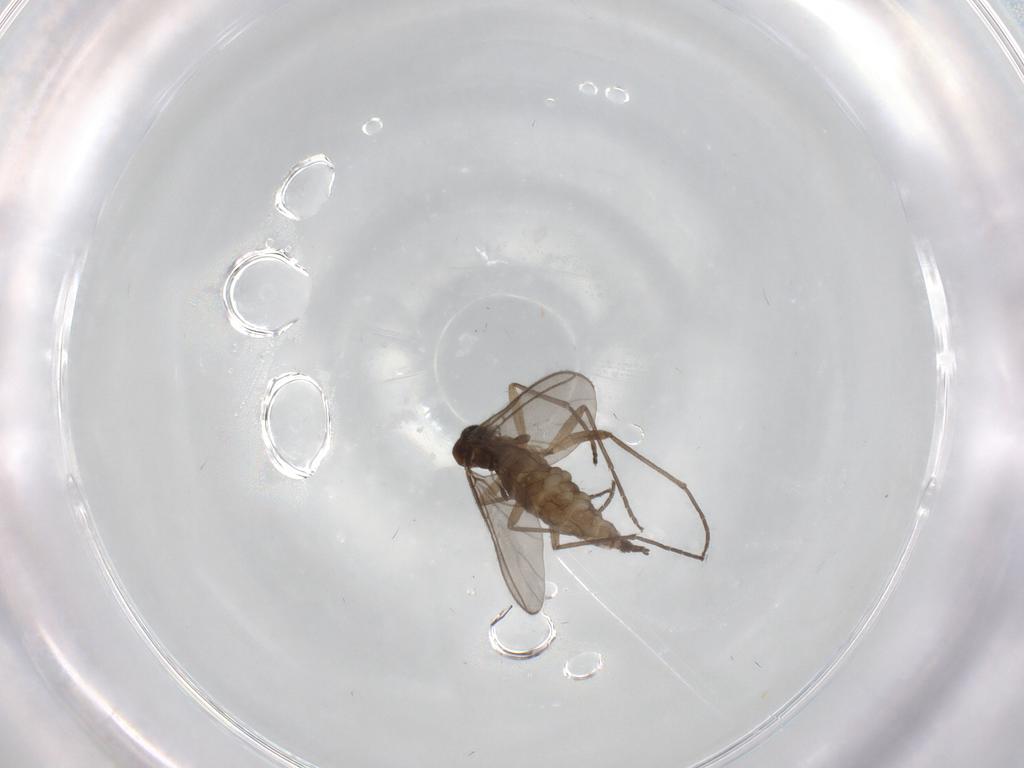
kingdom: Animalia
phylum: Arthropoda
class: Insecta
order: Diptera
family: Sciaridae
